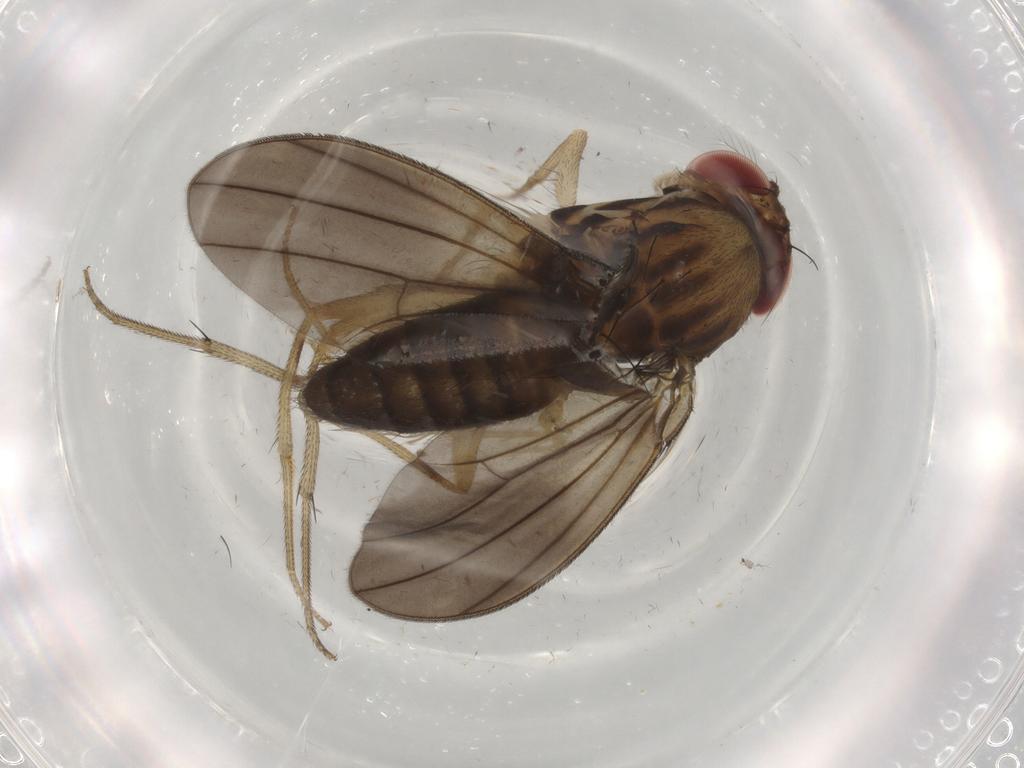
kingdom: Animalia
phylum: Arthropoda
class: Insecta
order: Diptera
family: Drosophilidae
